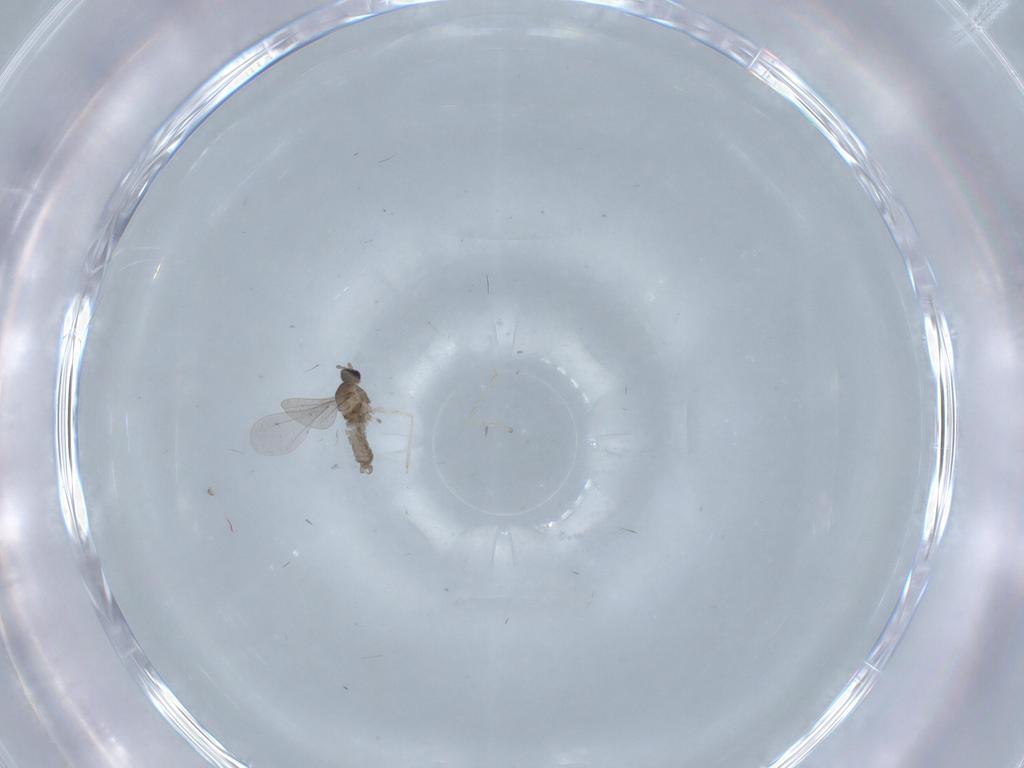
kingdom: Animalia
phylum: Arthropoda
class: Insecta
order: Diptera
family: Cecidomyiidae
